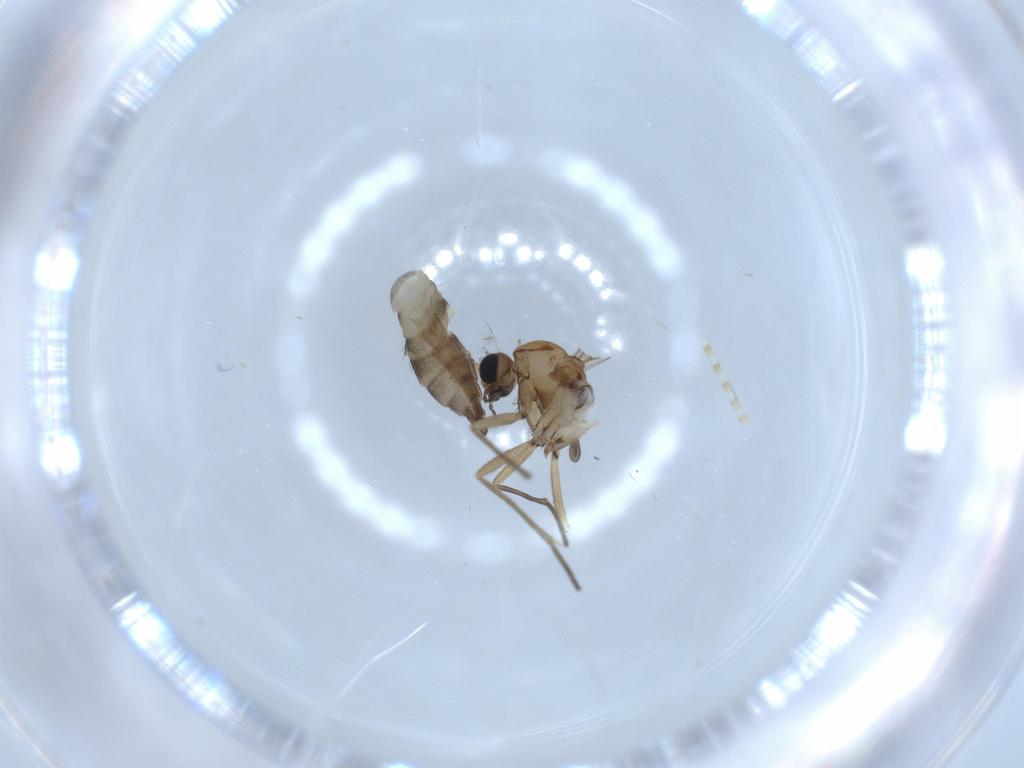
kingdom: Animalia
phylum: Arthropoda
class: Insecta
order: Diptera
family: Sciaridae
